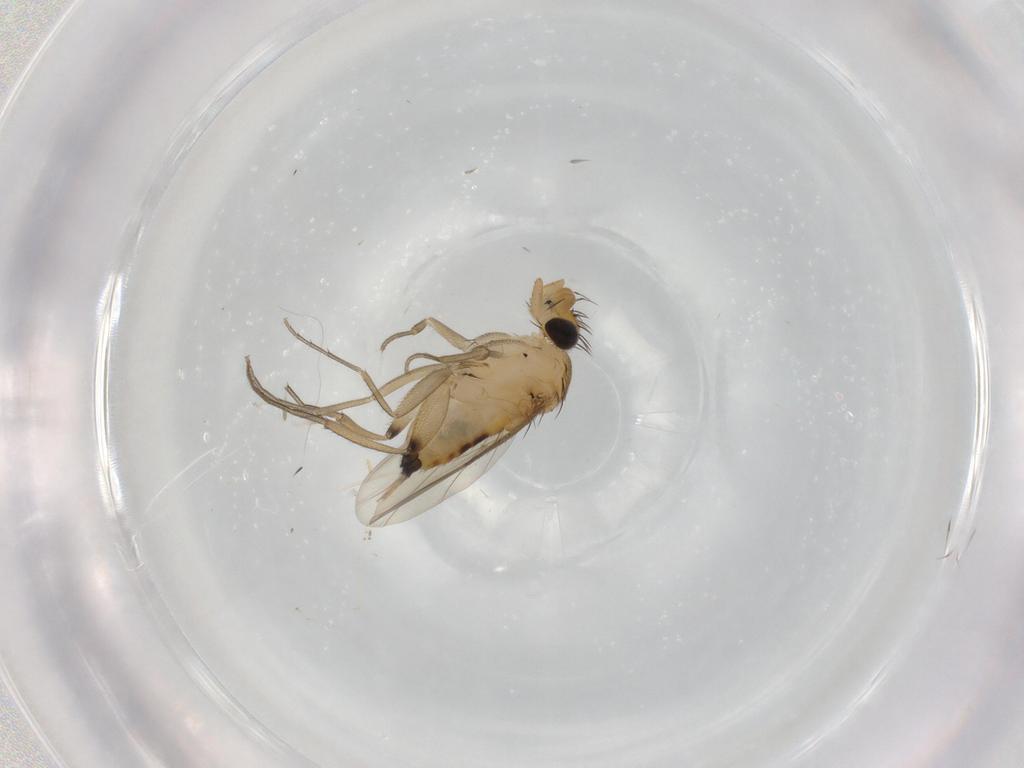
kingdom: Animalia
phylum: Arthropoda
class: Insecta
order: Diptera
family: Phoridae
